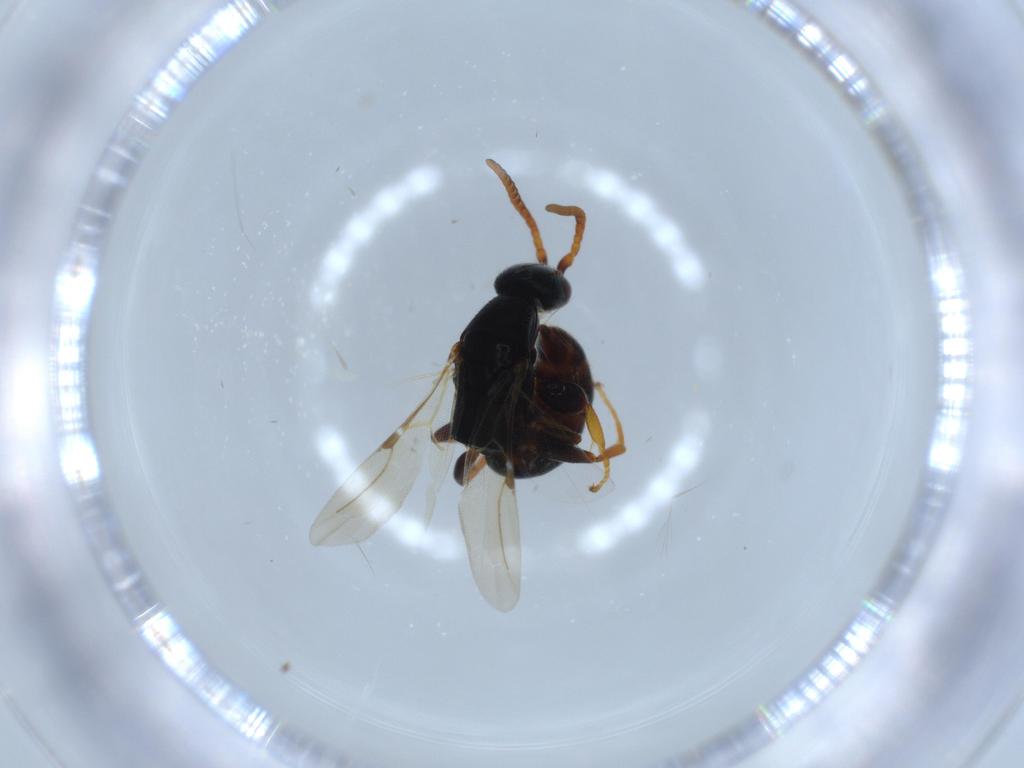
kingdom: Animalia
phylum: Arthropoda
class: Insecta
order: Hymenoptera
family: Bethylidae
